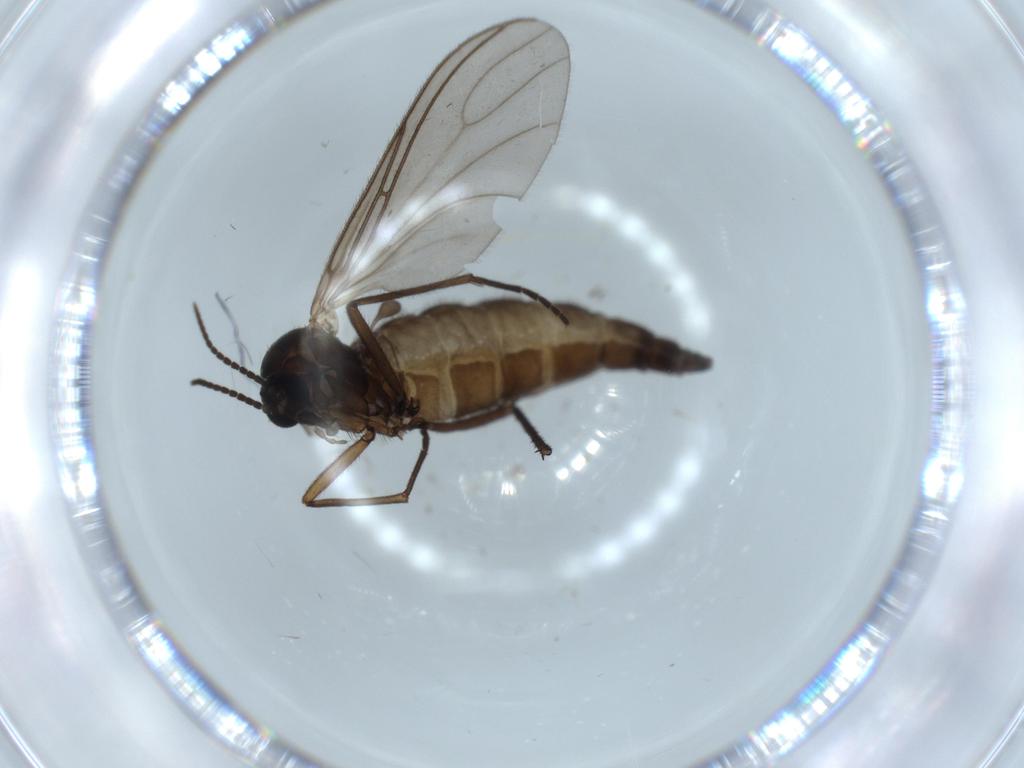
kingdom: Animalia
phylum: Arthropoda
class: Insecta
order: Diptera
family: Sciaridae
